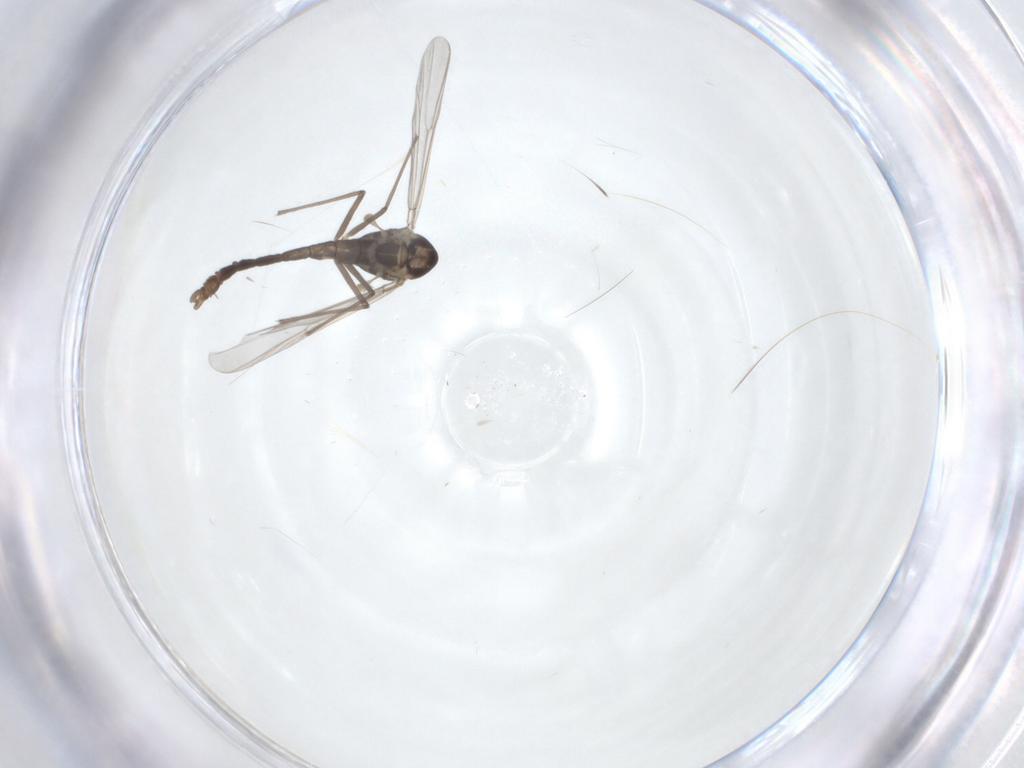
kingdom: Animalia
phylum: Arthropoda
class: Insecta
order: Diptera
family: Chironomidae
